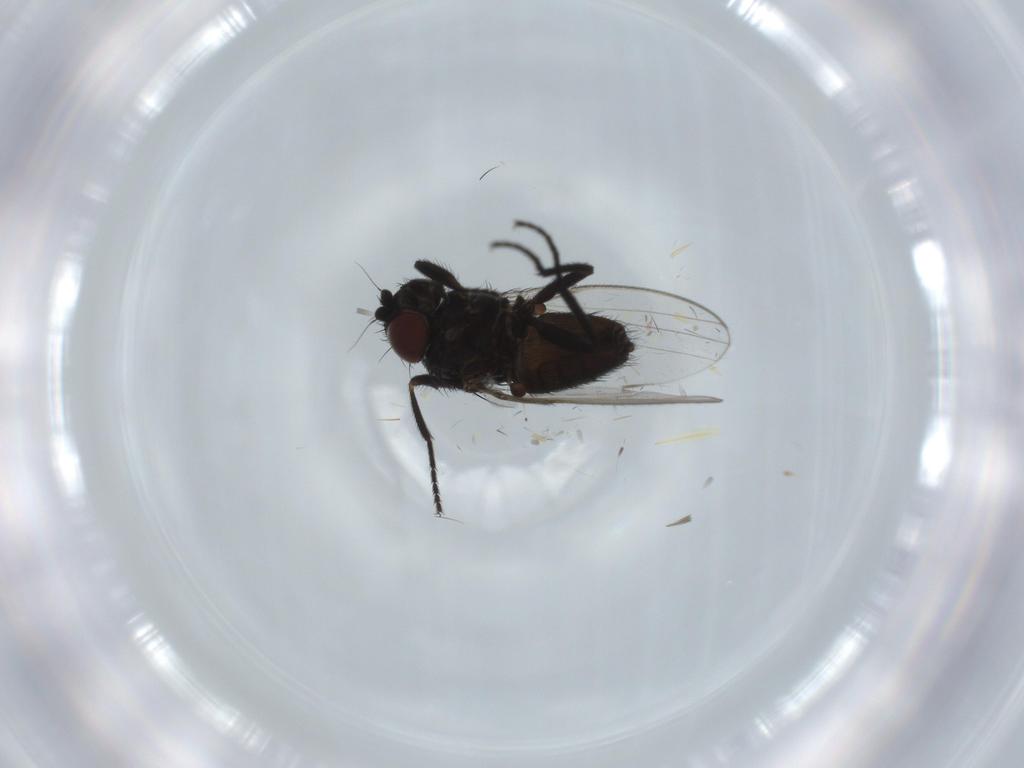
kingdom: Animalia
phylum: Arthropoda
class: Insecta
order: Diptera
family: Milichiidae
